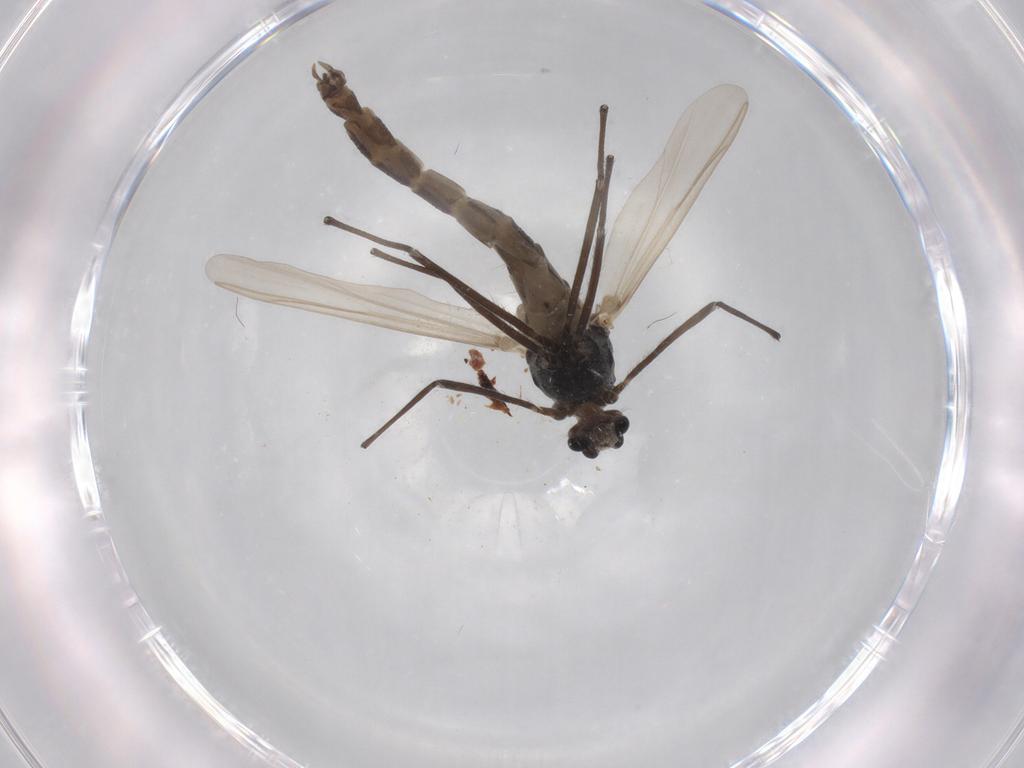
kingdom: Animalia
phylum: Arthropoda
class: Insecta
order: Diptera
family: Chironomidae
